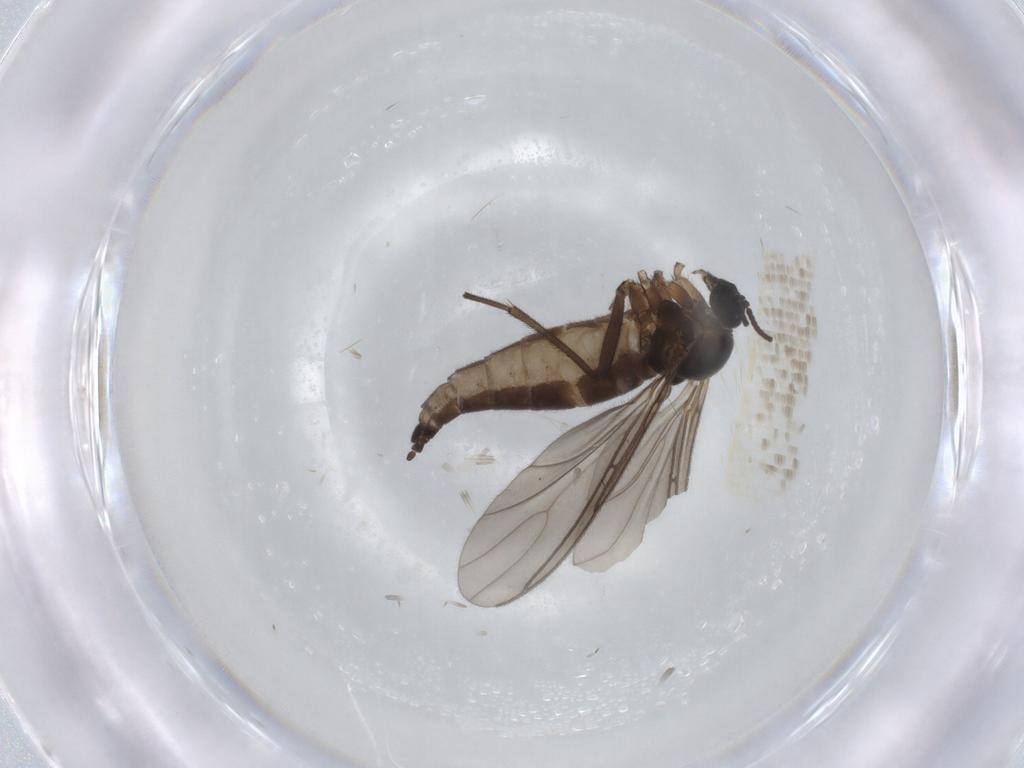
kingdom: Animalia
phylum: Arthropoda
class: Insecta
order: Diptera
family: Sciaridae
